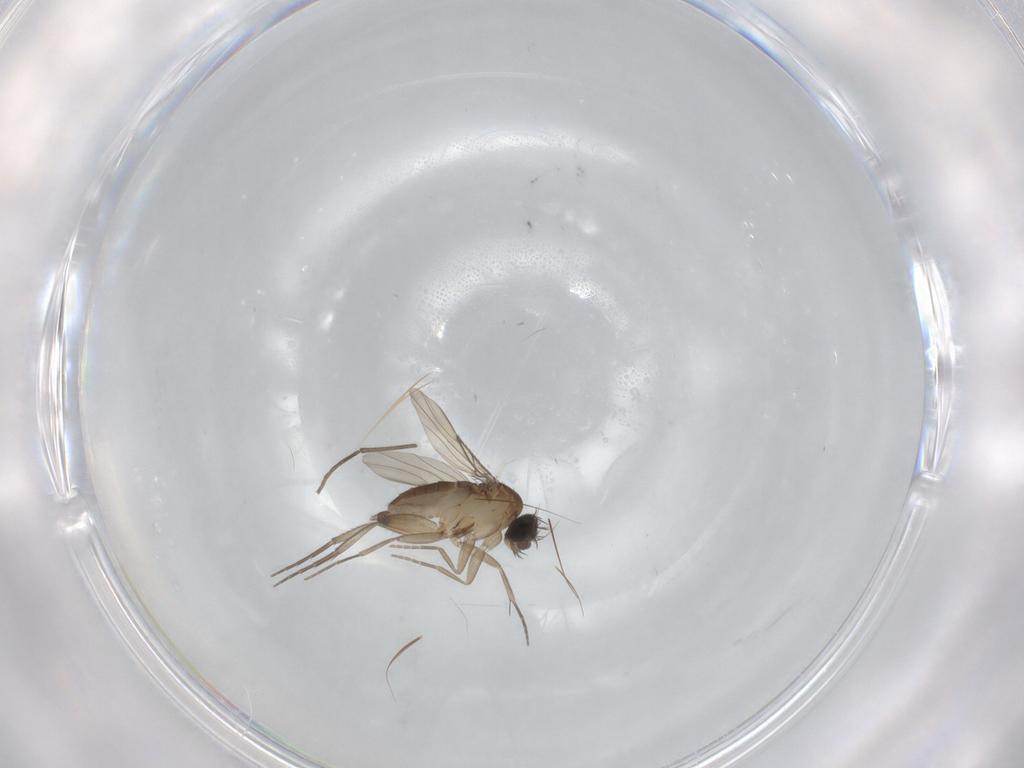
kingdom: Animalia
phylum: Arthropoda
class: Insecta
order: Diptera
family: Phoridae
